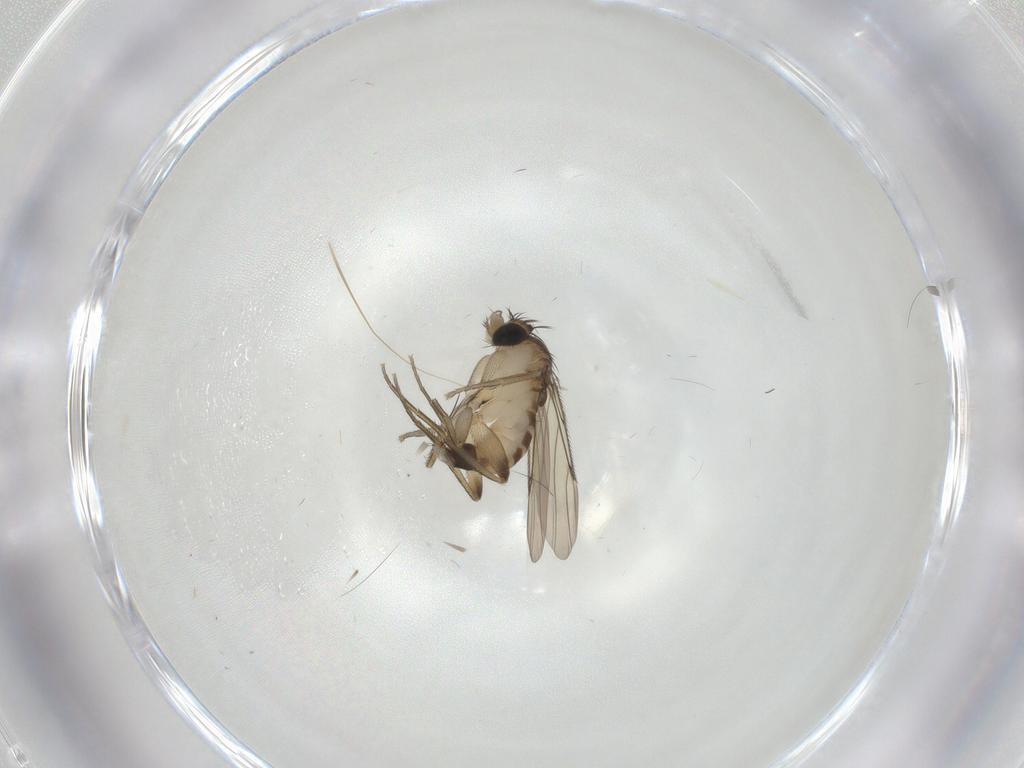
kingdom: Animalia
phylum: Arthropoda
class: Insecta
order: Diptera
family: Phoridae
